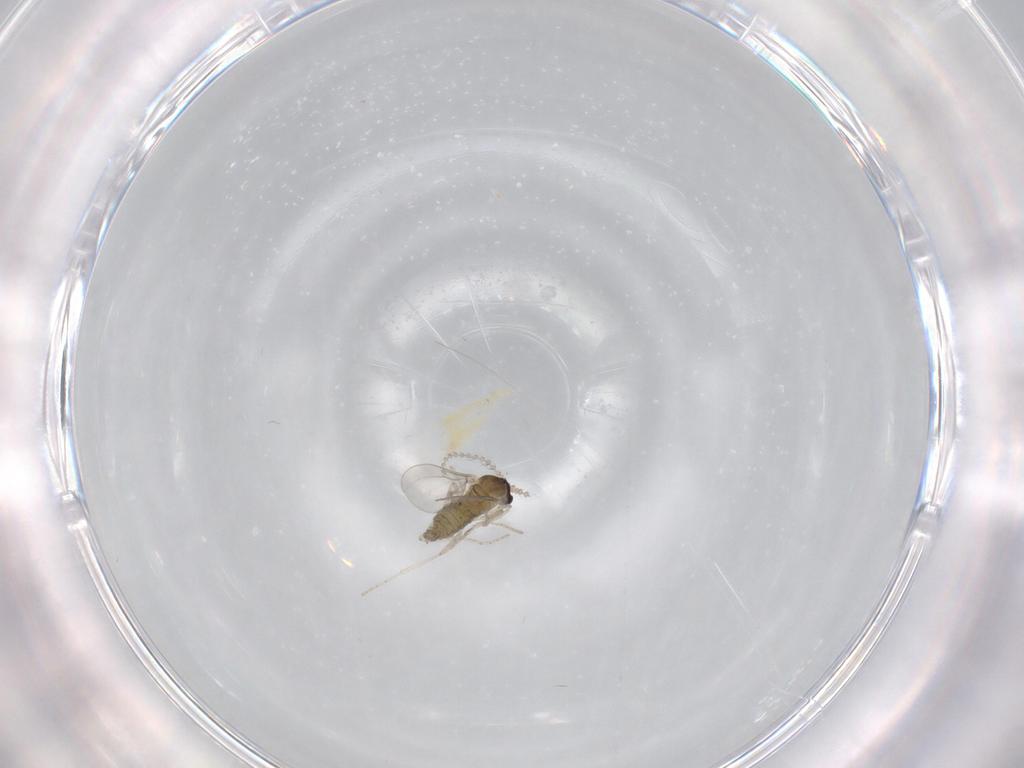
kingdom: Animalia
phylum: Arthropoda
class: Insecta
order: Diptera
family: Cecidomyiidae
